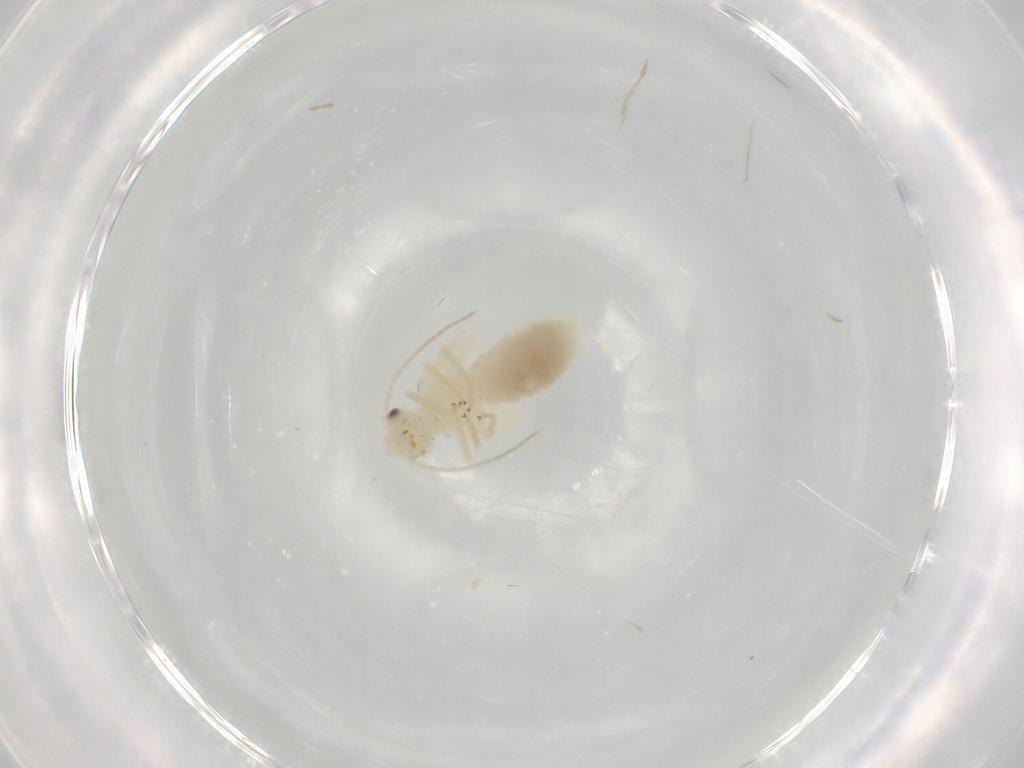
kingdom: Animalia
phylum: Arthropoda
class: Insecta
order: Psocodea
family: Caeciliusidae
